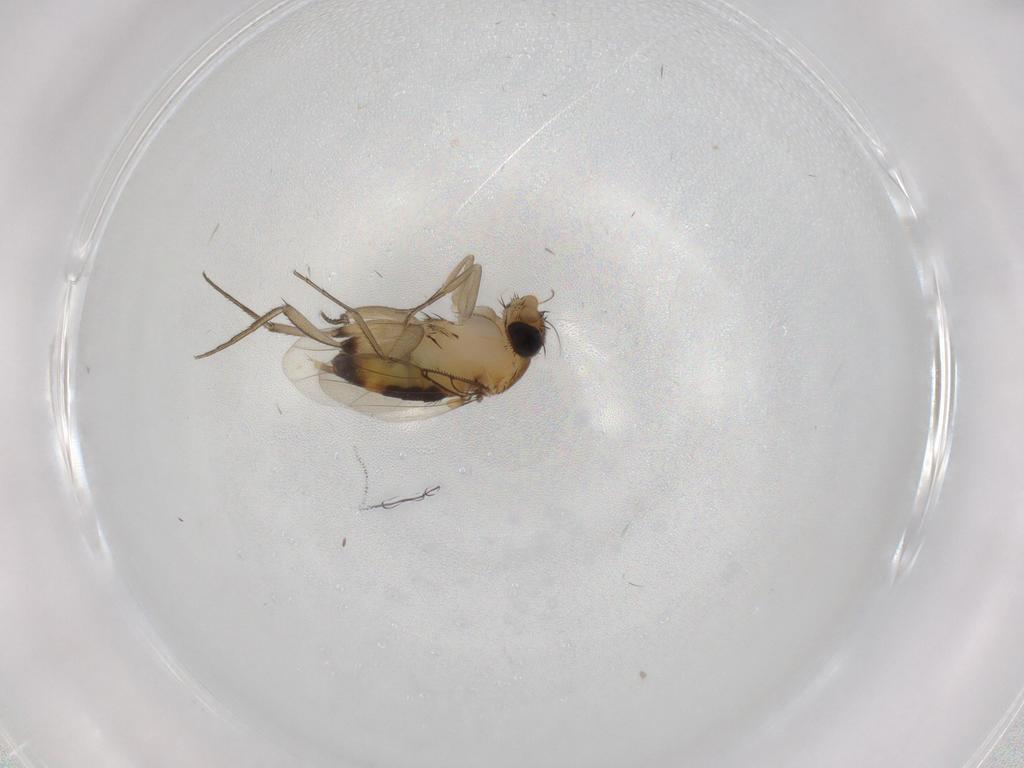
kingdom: Animalia
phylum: Arthropoda
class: Insecta
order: Diptera
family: Phoridae
